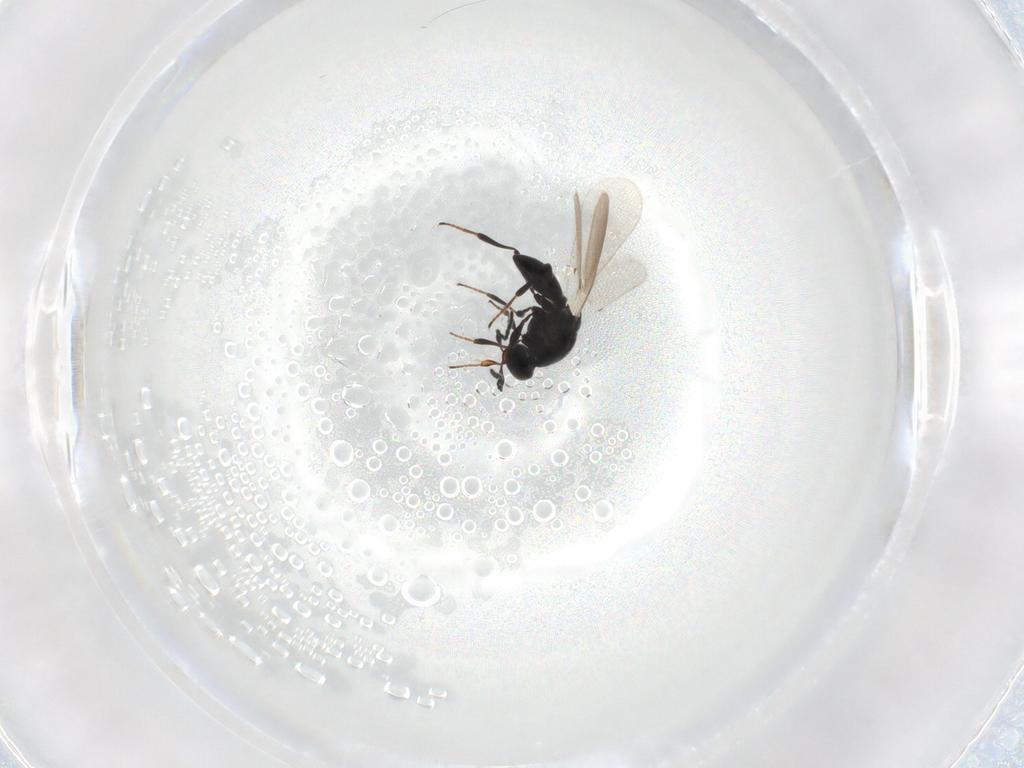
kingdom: Animalia
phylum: Arthropoda
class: Insecta
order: Hymenoptera
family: Platygastridae
